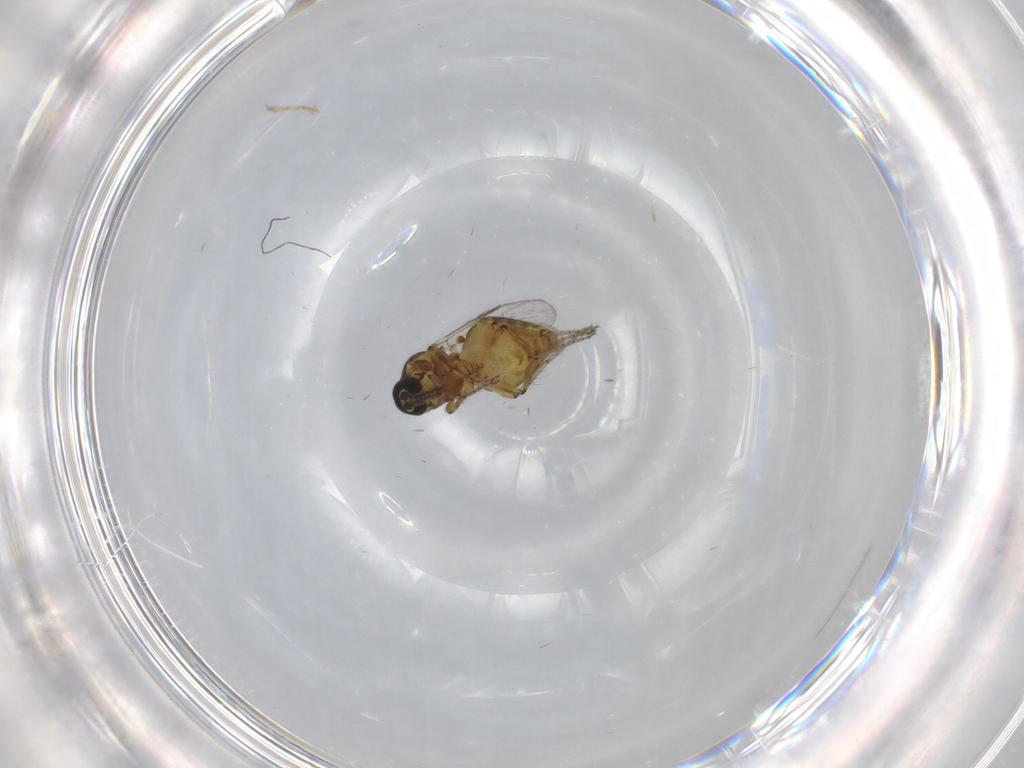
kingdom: Animalia
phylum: Arthropoda
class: Insecta
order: Diptera
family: Ceratopogonidae
